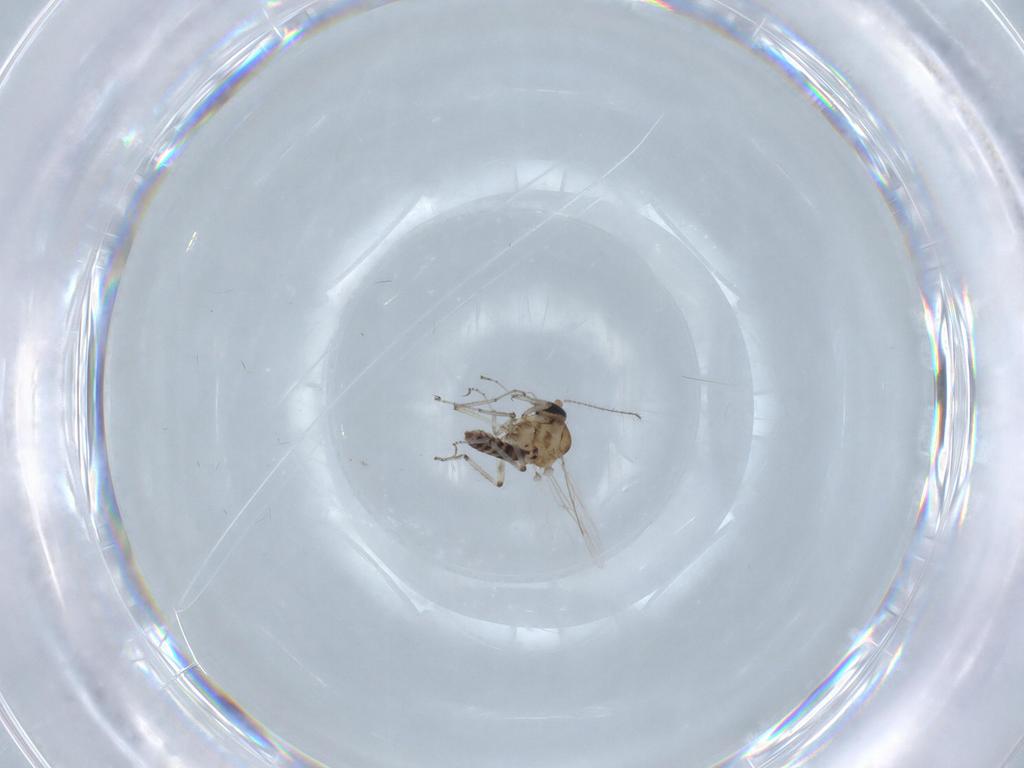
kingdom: Animalia
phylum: Arthropoda
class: Insecta
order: Diptera
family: Ceratopogonidae
